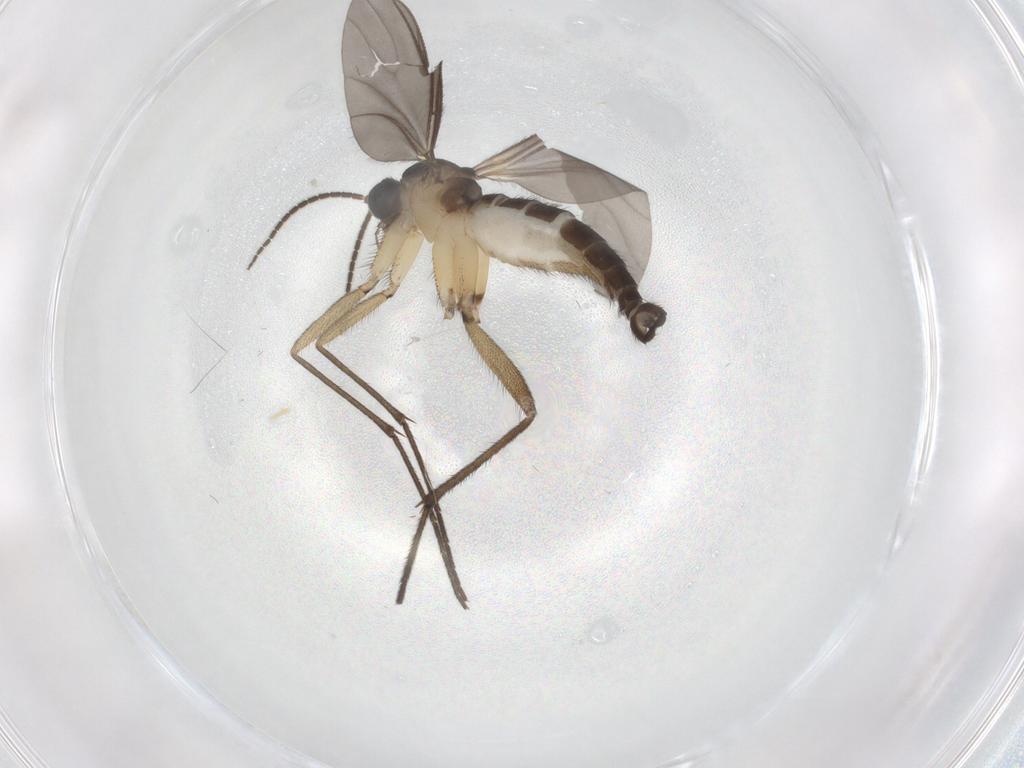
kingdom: Animalia
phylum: Arthropoda
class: Insecta
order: Diptera
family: Sciaridae
